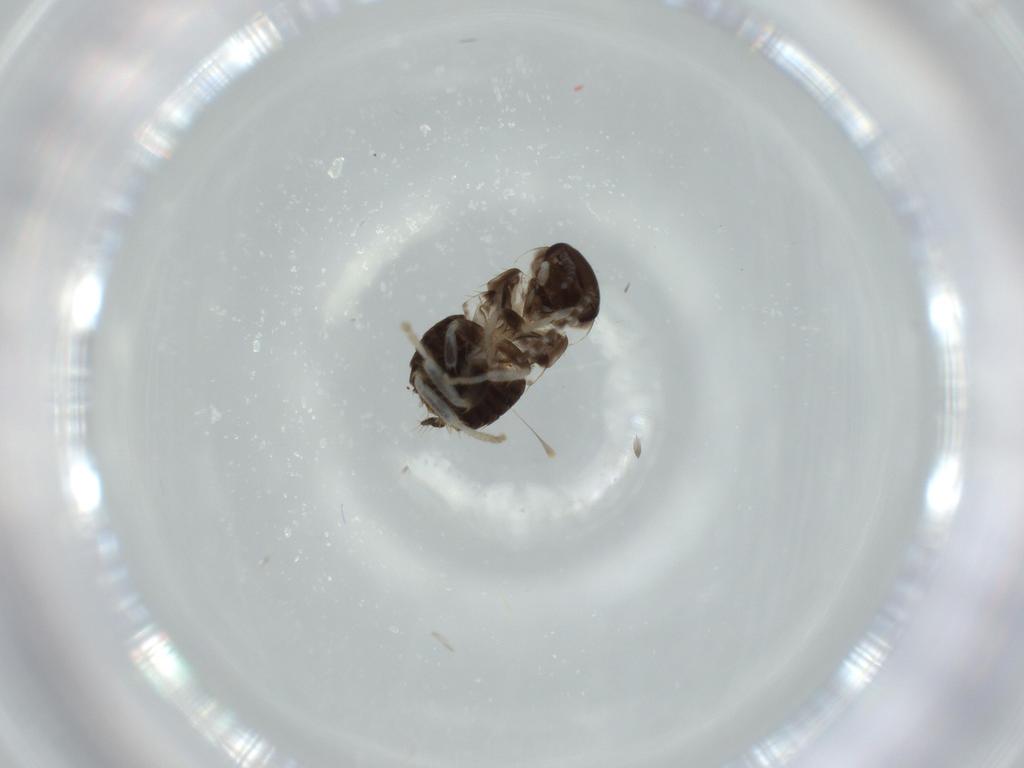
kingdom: Animalia
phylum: Arthropoda
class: Insecta
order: Blattodea
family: Ectobiidae
